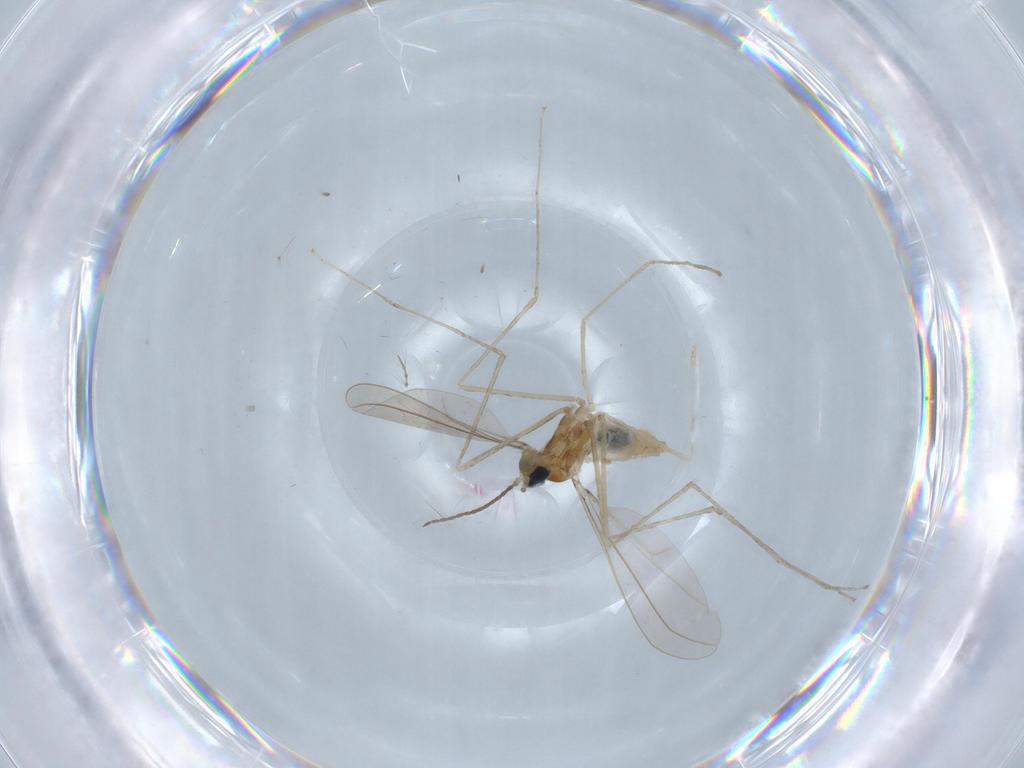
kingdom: Animalia
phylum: Arthropoda
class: Insecta
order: Diptera
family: Cecidomyiidae
